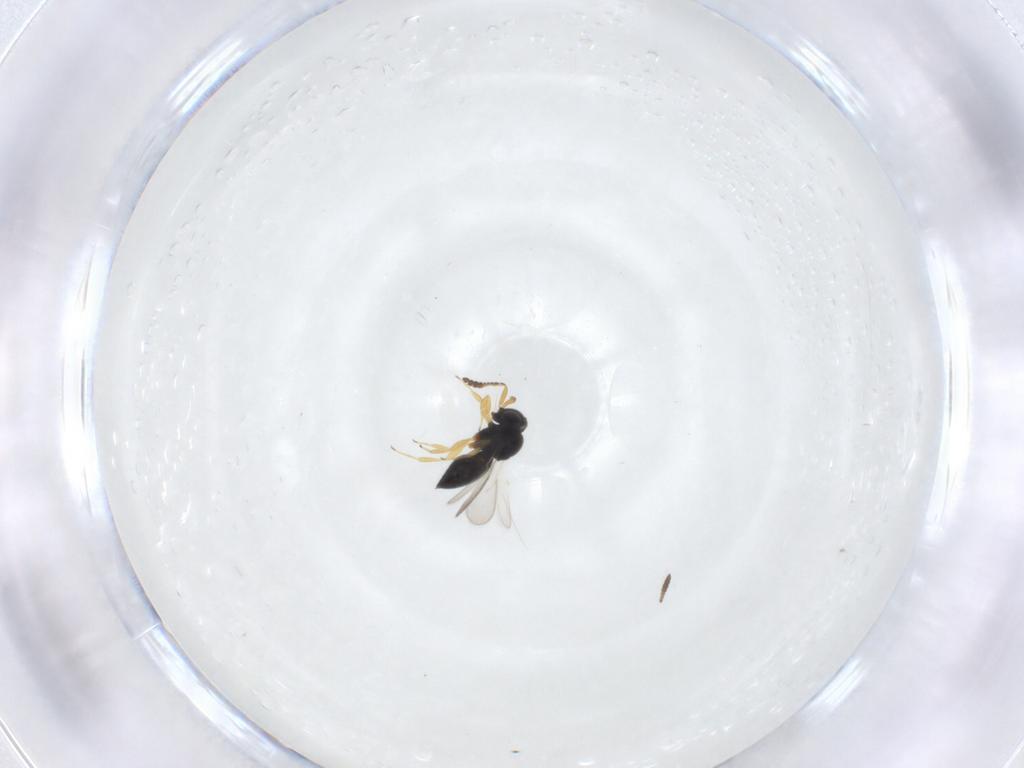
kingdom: Animalia
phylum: Arthropoda
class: Insecta
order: Hymenoptera
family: Scelionidae
